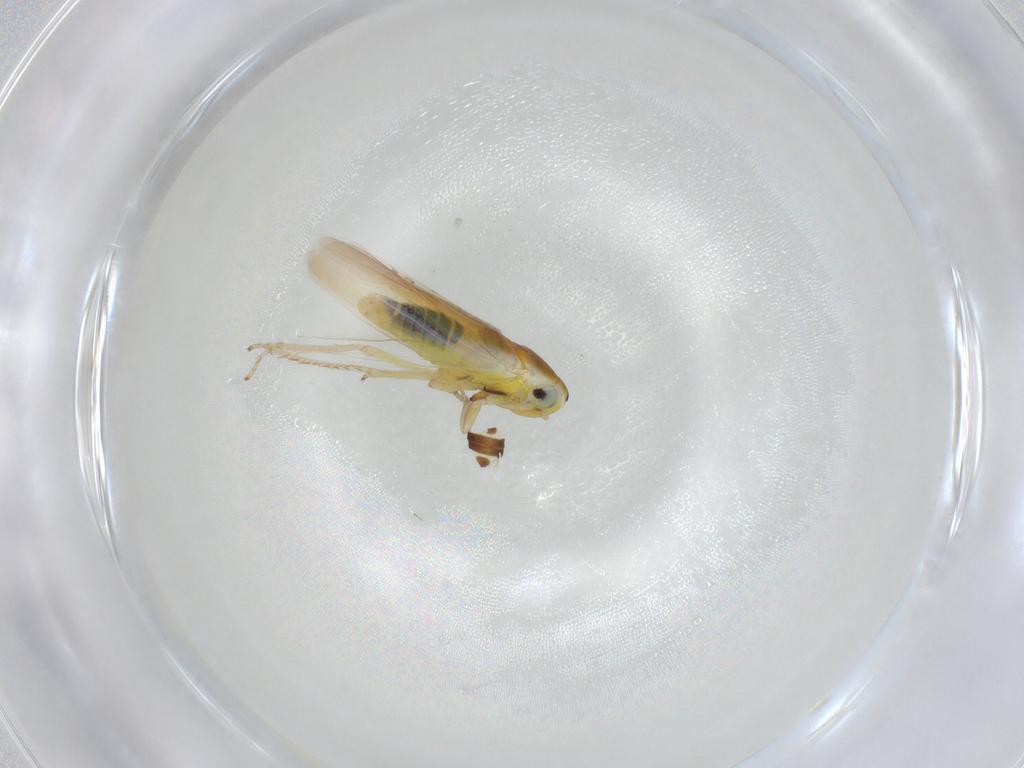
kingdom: Animalia
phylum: Arthropoda
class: Insecta
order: Hemiptera
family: Cicadellidae
